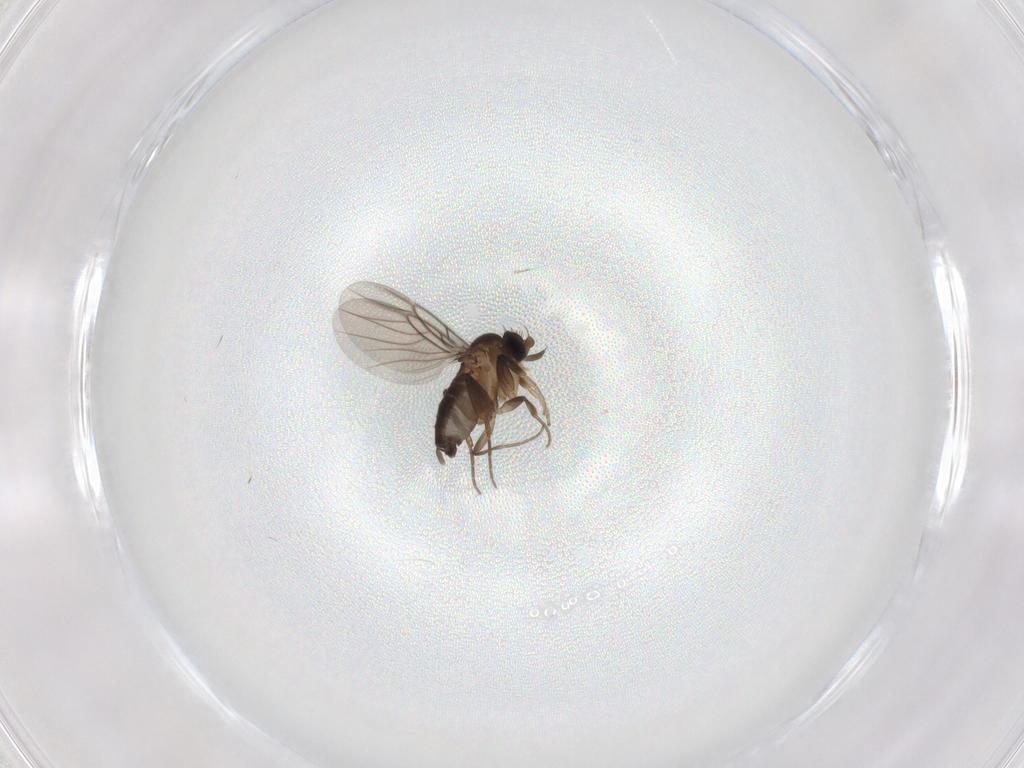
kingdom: Animalia
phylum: Arthropoda
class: Insecta
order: Diptera
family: Phoridae
